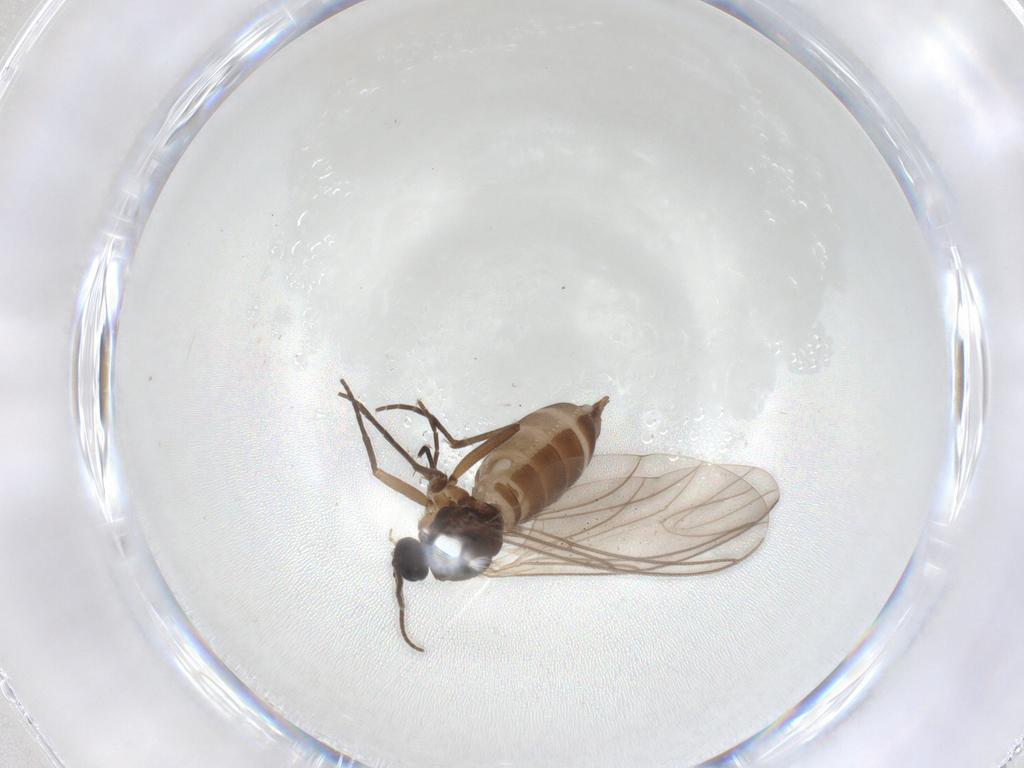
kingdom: Animalia
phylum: Arthropoda
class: Insecta
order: Diptera
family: Sciaridae
